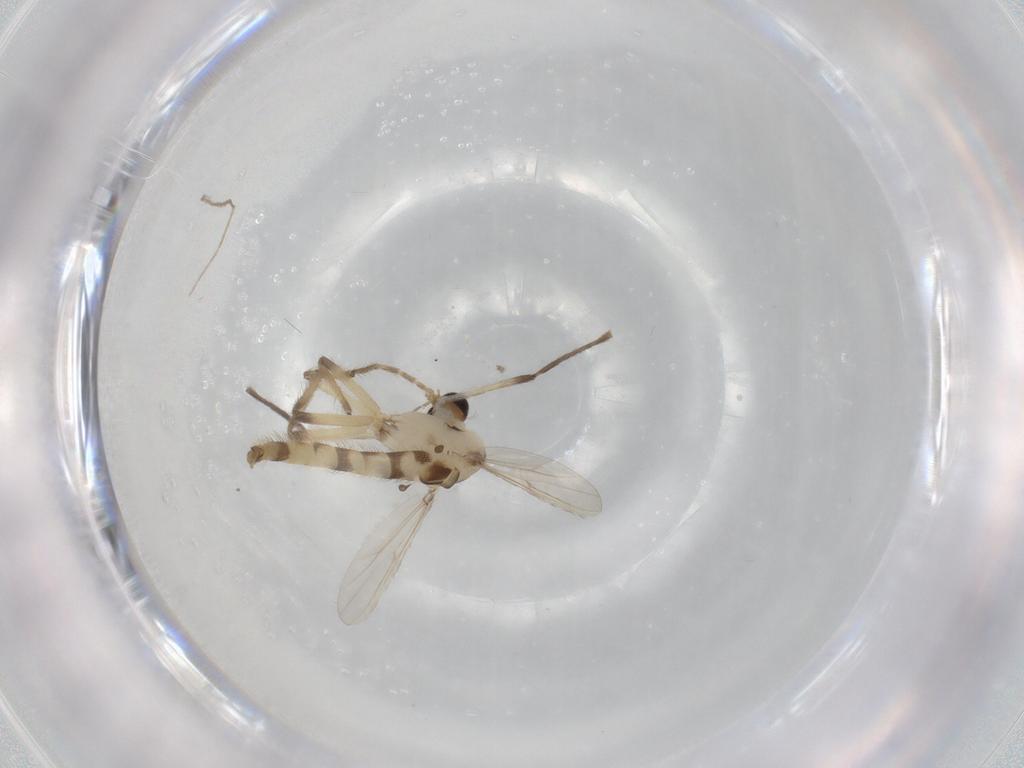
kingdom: Animalia
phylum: Arthropoda
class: Insecta
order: Diptera
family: Chironomidae
